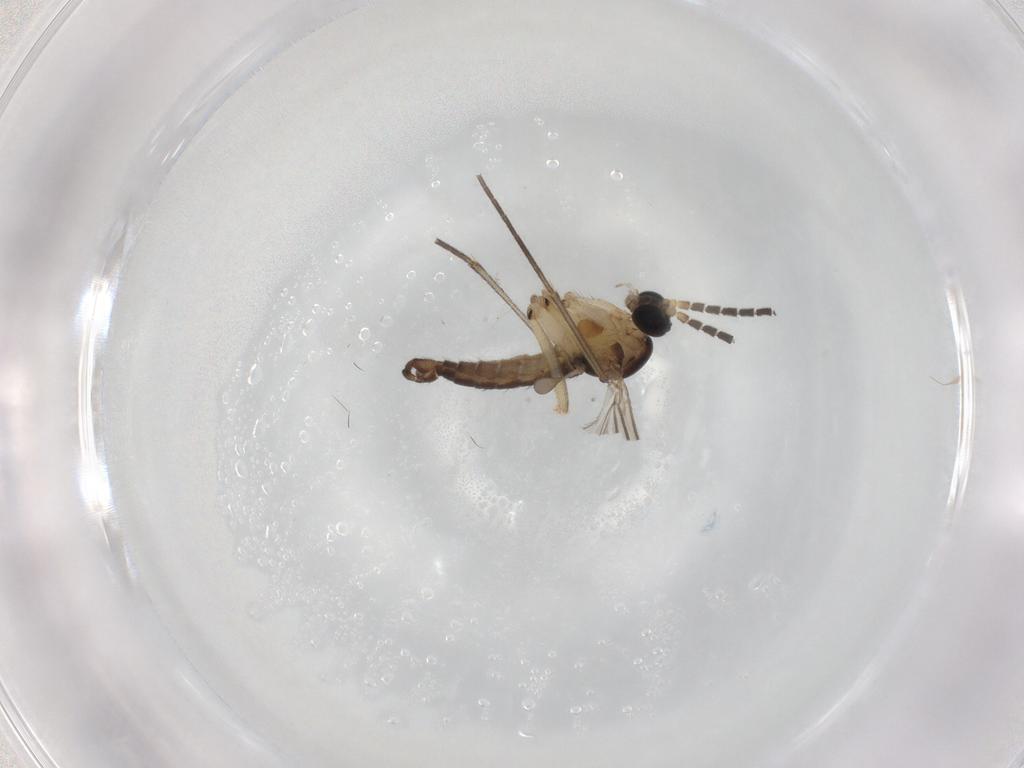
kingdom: Animalia
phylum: Arthropoda
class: Insecta
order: Diptera
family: Sciaridae
